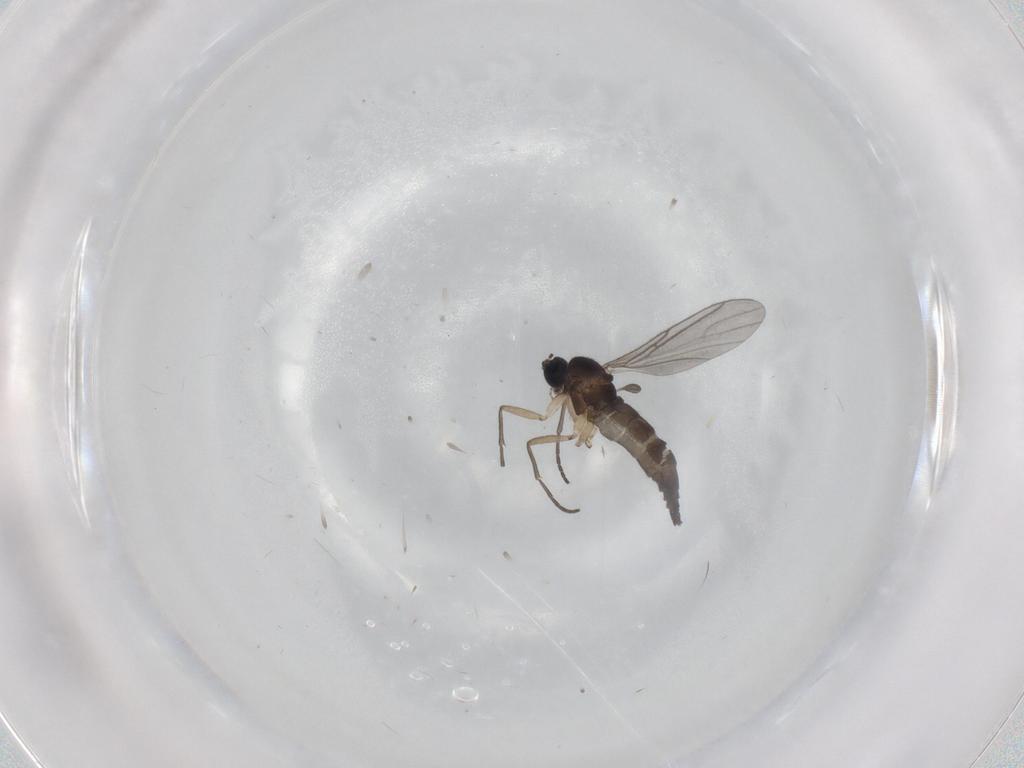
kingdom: Animalia
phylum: Arthropoda
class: Insecta
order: Diptera
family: Sciaridae
